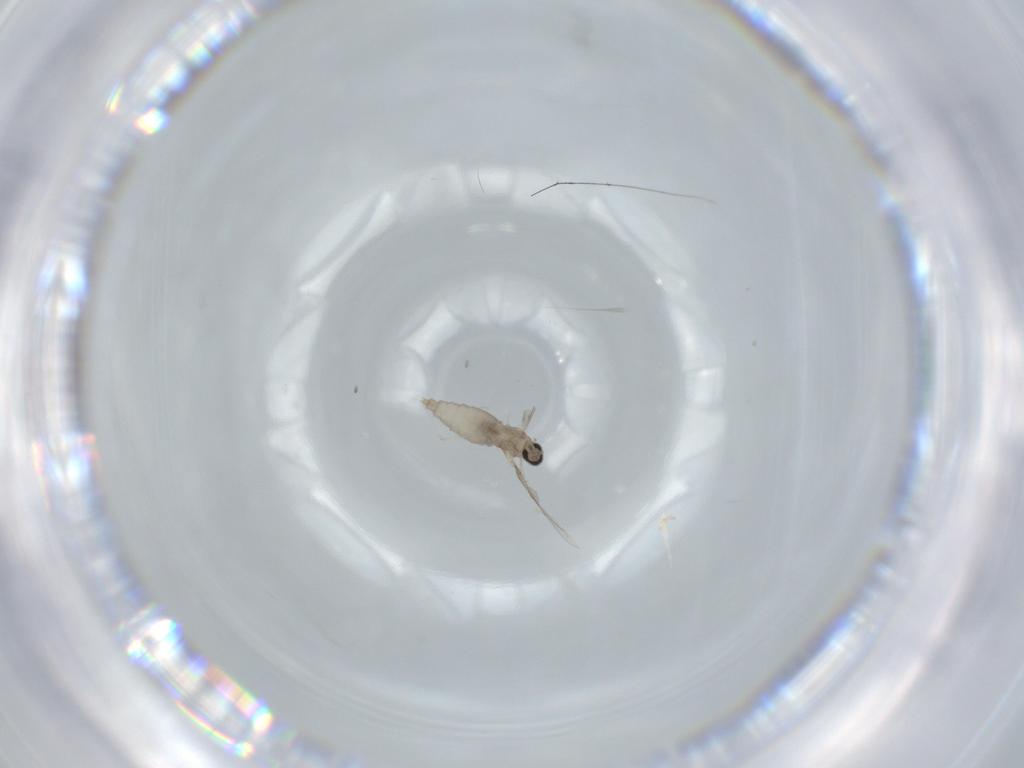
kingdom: Animalia
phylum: Arthropoda
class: Insecta
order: Diptera
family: Cecidomyiidae
